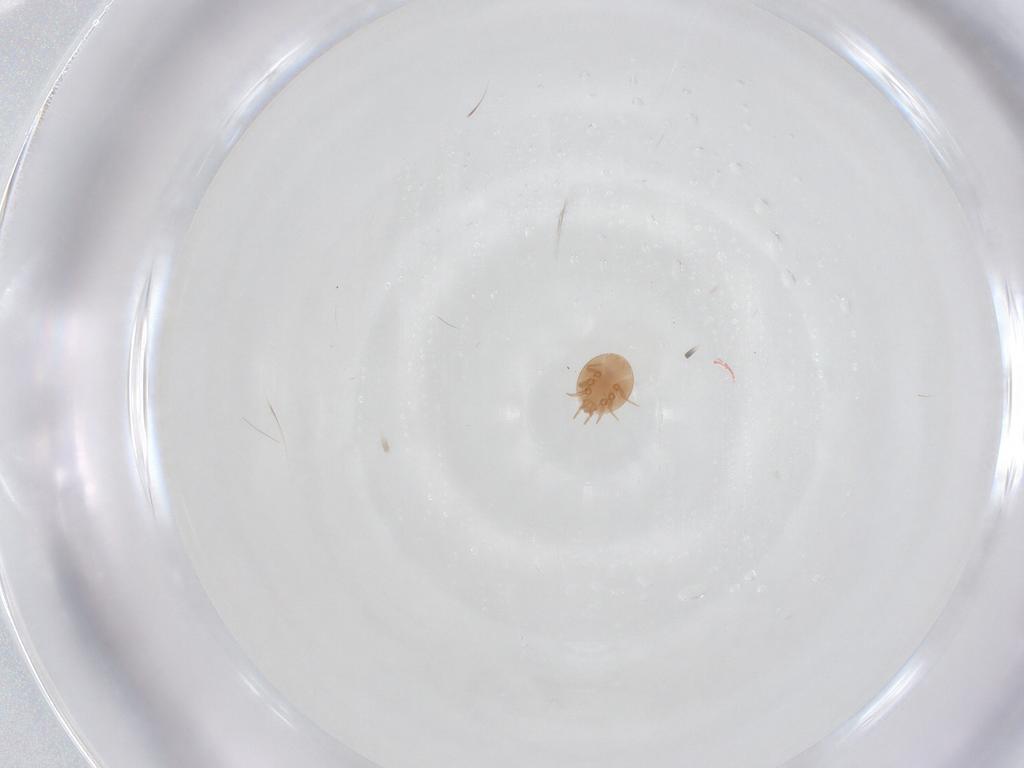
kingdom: Animalia
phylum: Arthropoda
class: Arachnida
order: Mesostigmata
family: Trematuridae
